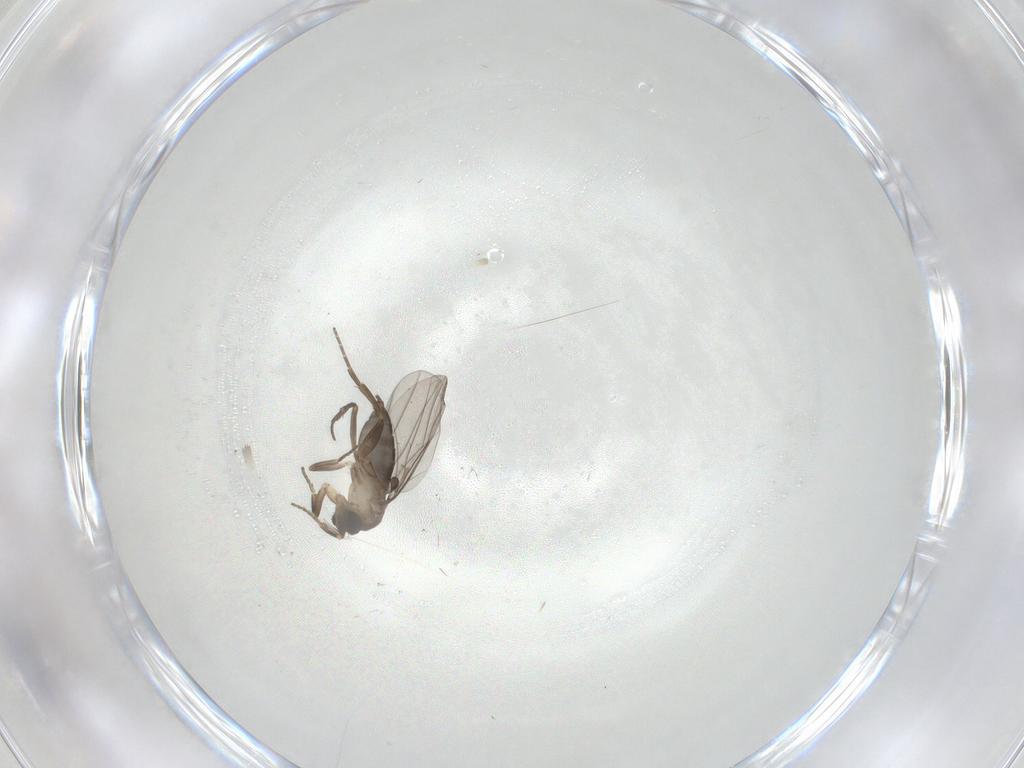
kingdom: Animalia
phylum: Arthropoda
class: Insecta
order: Diptera
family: Phoridae
